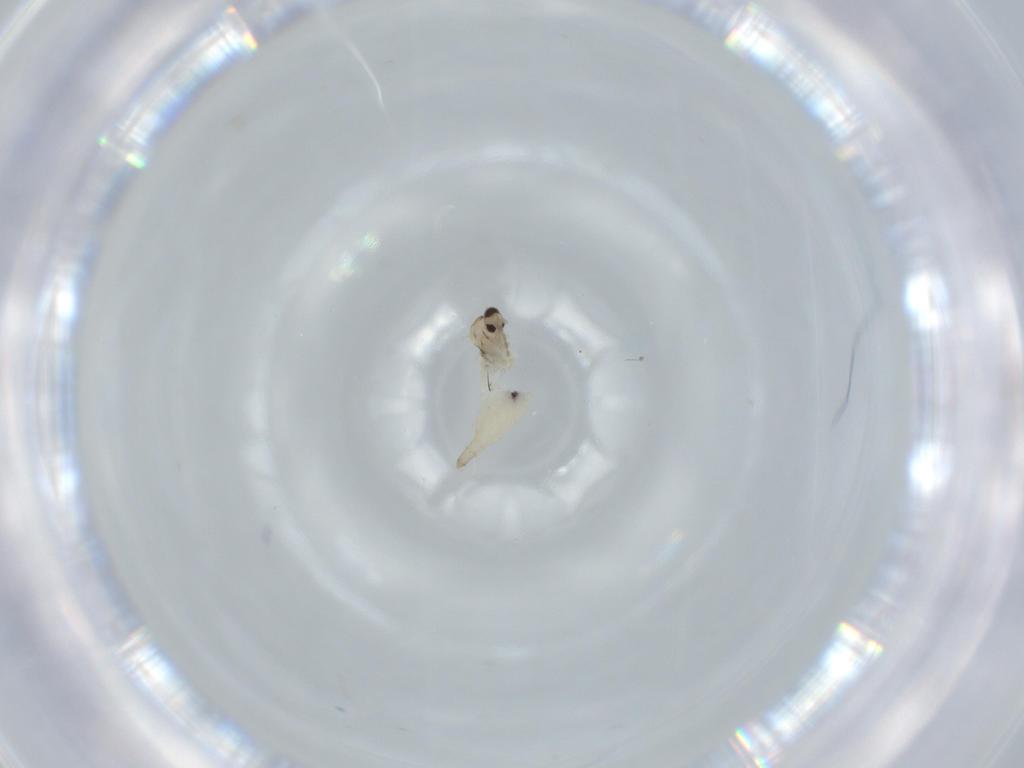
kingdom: Animalia
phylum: Arthropoda
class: Insecta
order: Diptera
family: Cecidomyiidae
